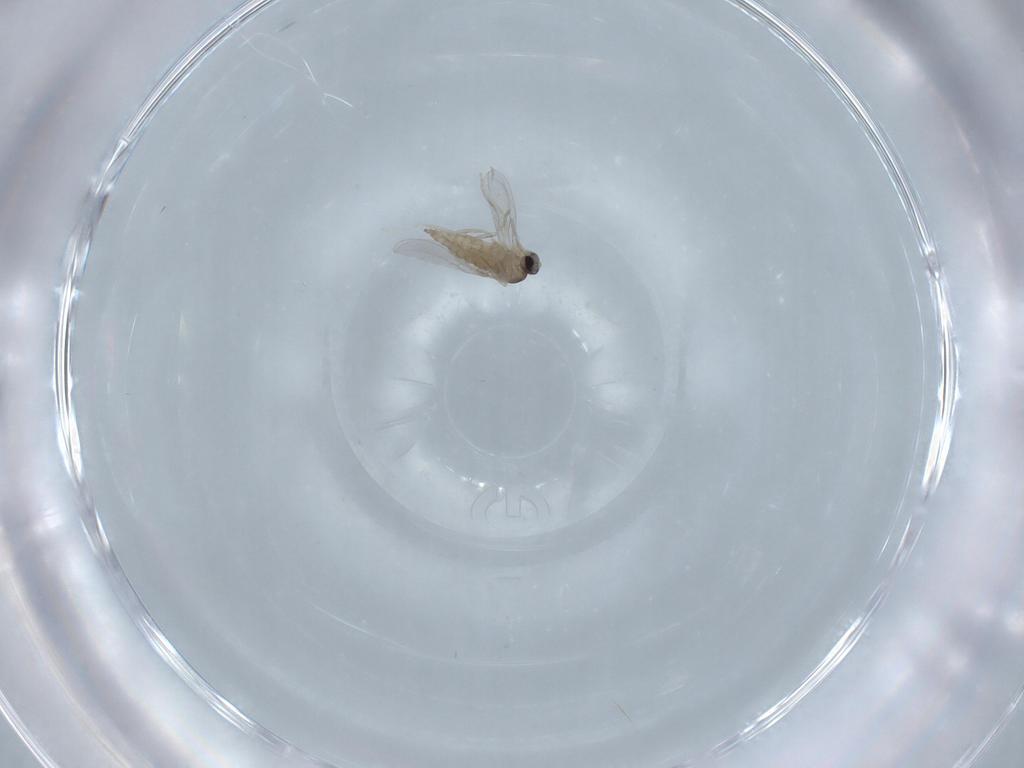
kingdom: Animalia
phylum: Arthropoda
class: Insecta
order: Diptera
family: Cecidomyiidae
